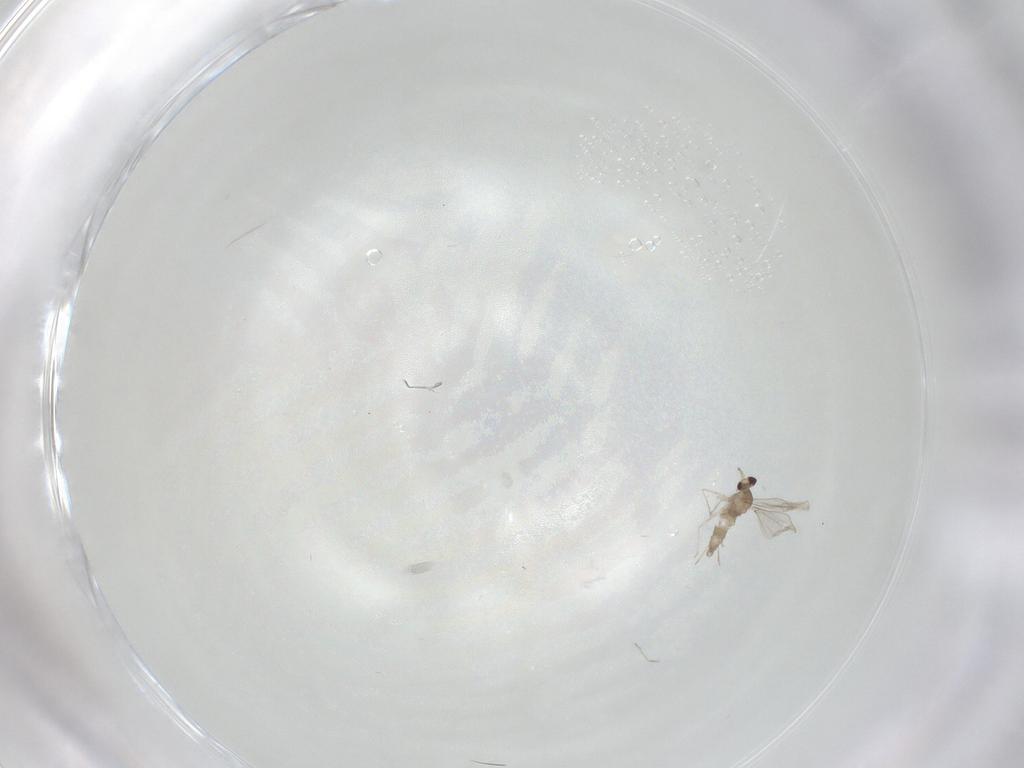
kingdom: Animalia
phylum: Arthropoda
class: Insecta
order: Diptera
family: Cecidomyiidae
